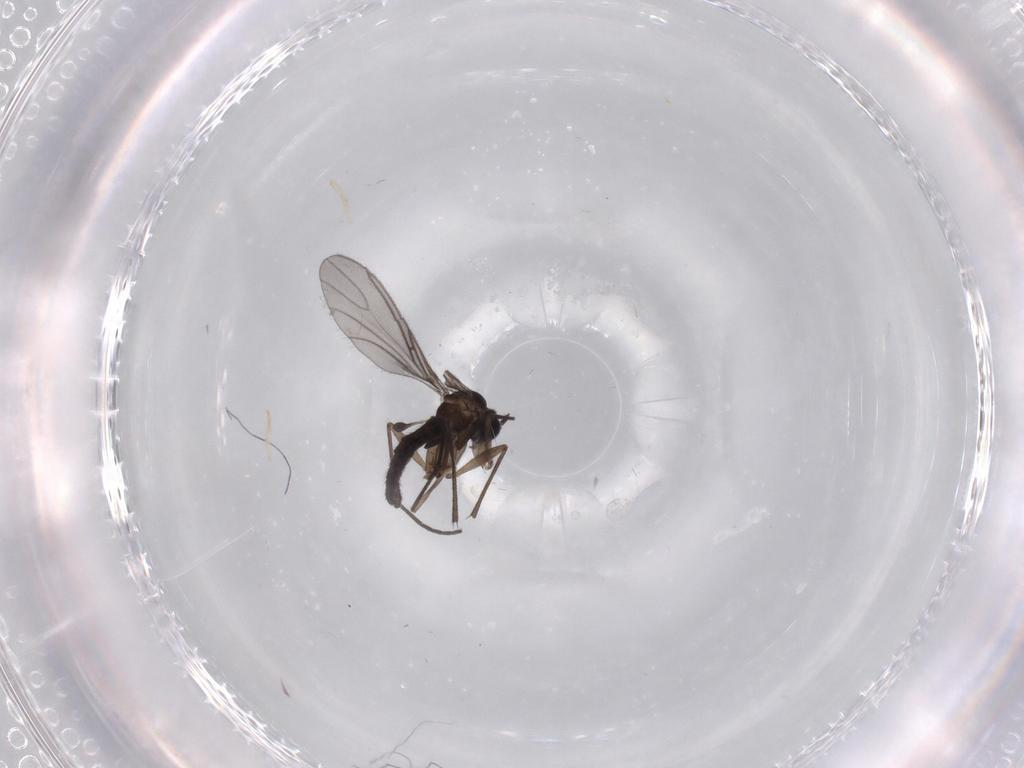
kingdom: Animalia
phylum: Arthropoda
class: Insecta
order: Diptera
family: Sciaridae
